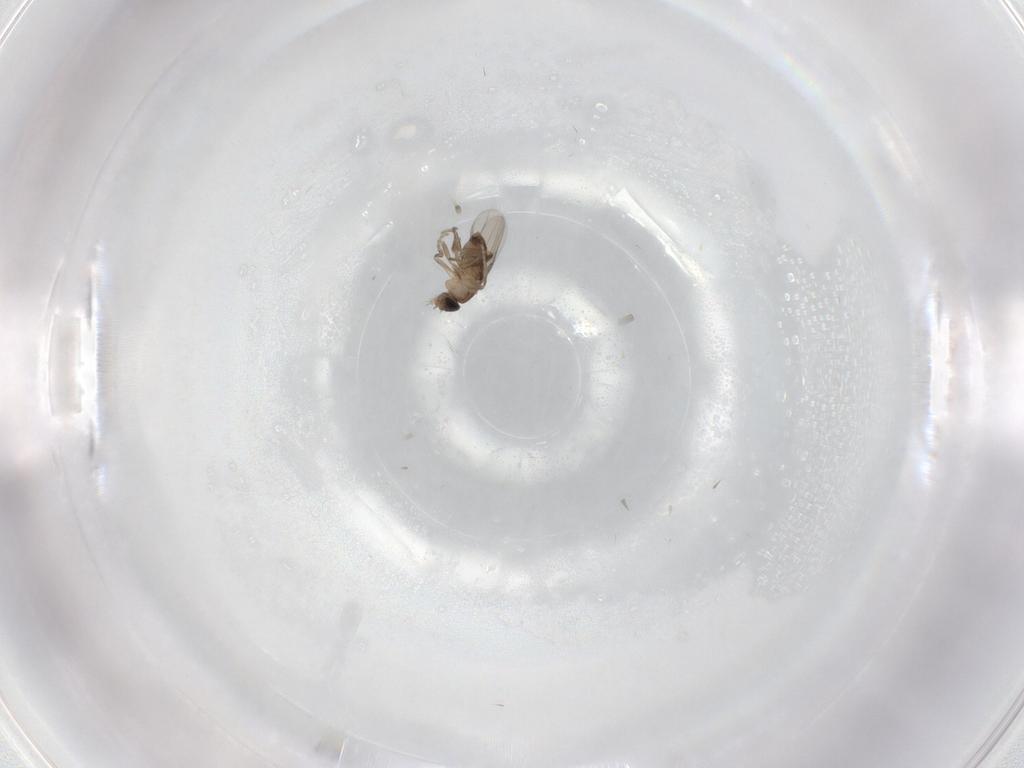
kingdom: Animalia
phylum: Arthropoda
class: Insecta
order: Diptera
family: Phoridae
